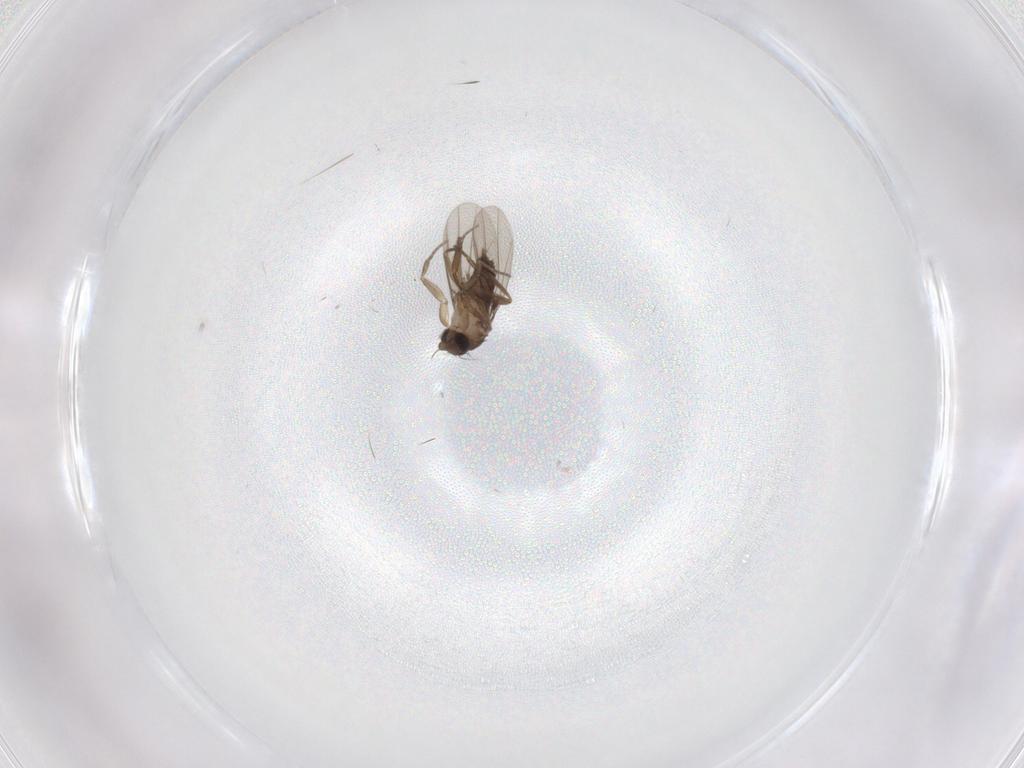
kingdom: Animalia
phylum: Arthropoda
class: Insecta
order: Diptera
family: Phoridae
